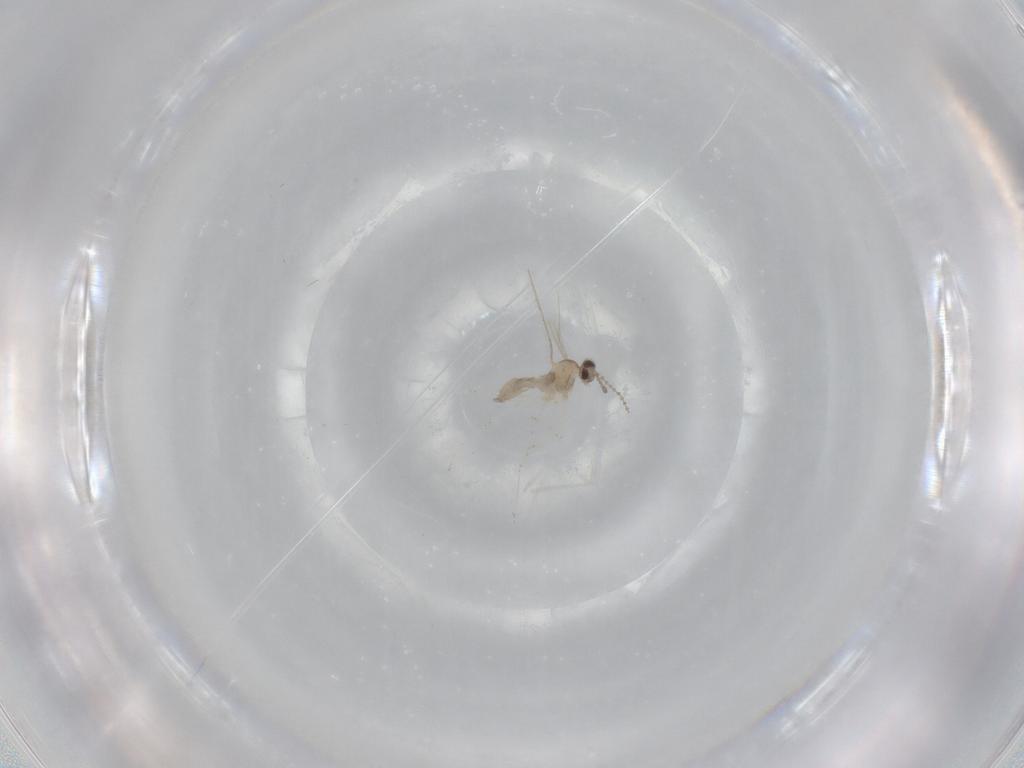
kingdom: Animalia
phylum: Arthropoda
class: Insecta
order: Diptera
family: Cecidomyiidae
